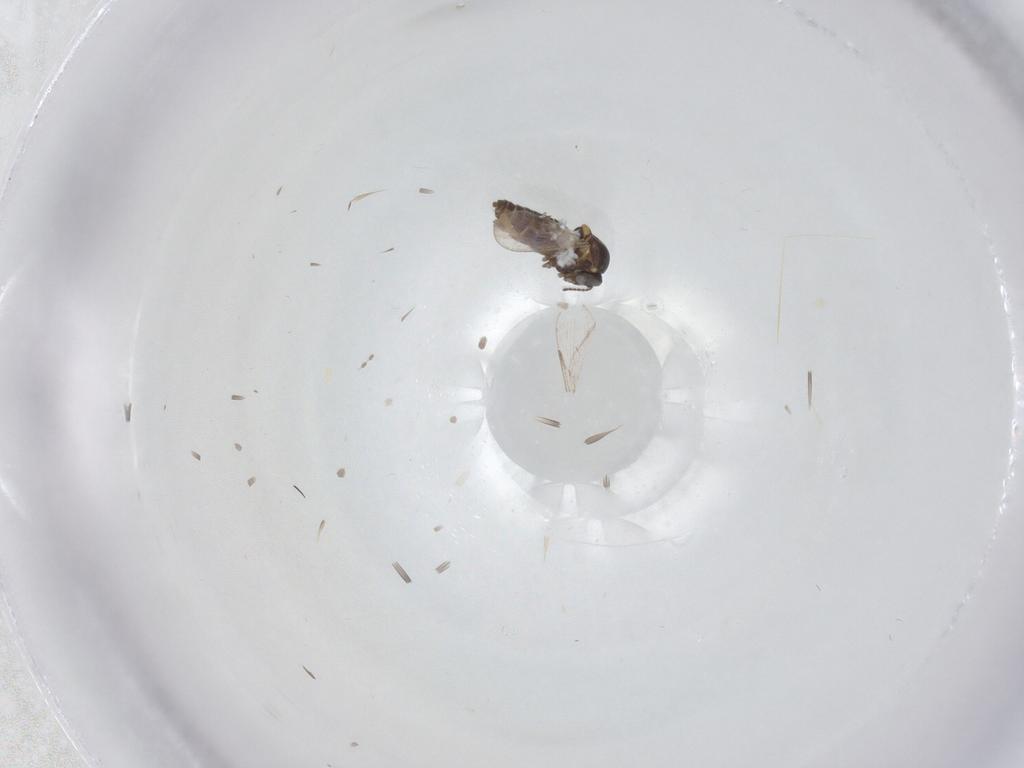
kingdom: Animalia
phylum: Arthropoda
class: Insecta
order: Diptera
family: Ceratopogonidae
